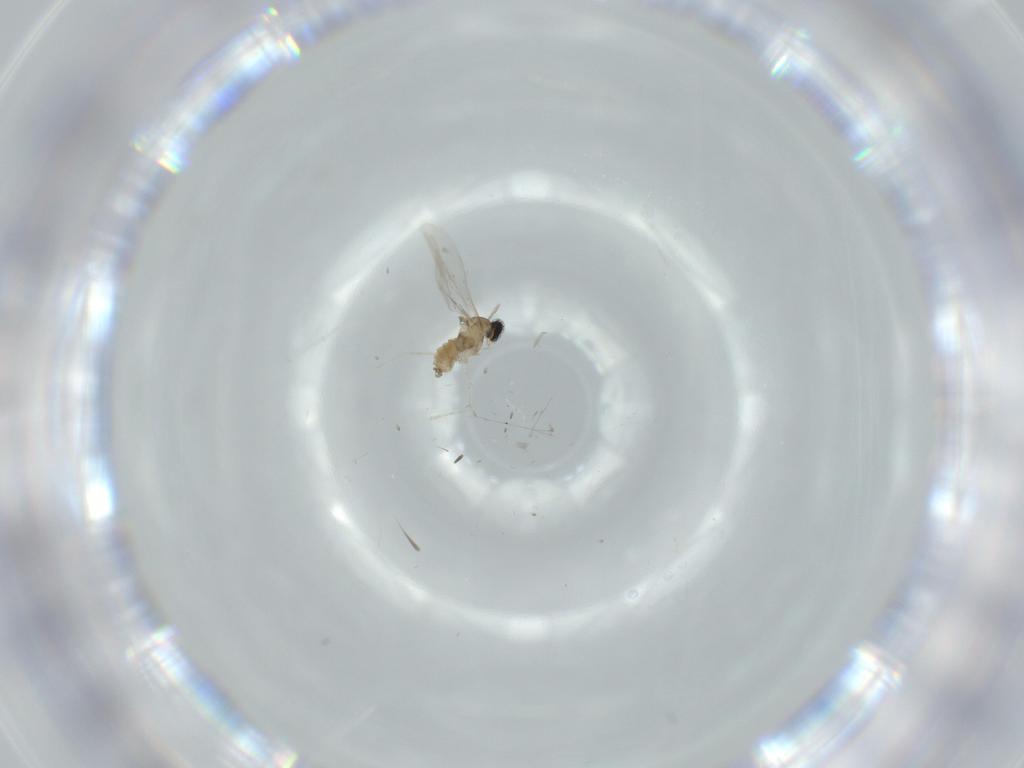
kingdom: Animalia
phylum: Arthropoda
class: Insecta
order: Diptera
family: Cecidomyiidae
